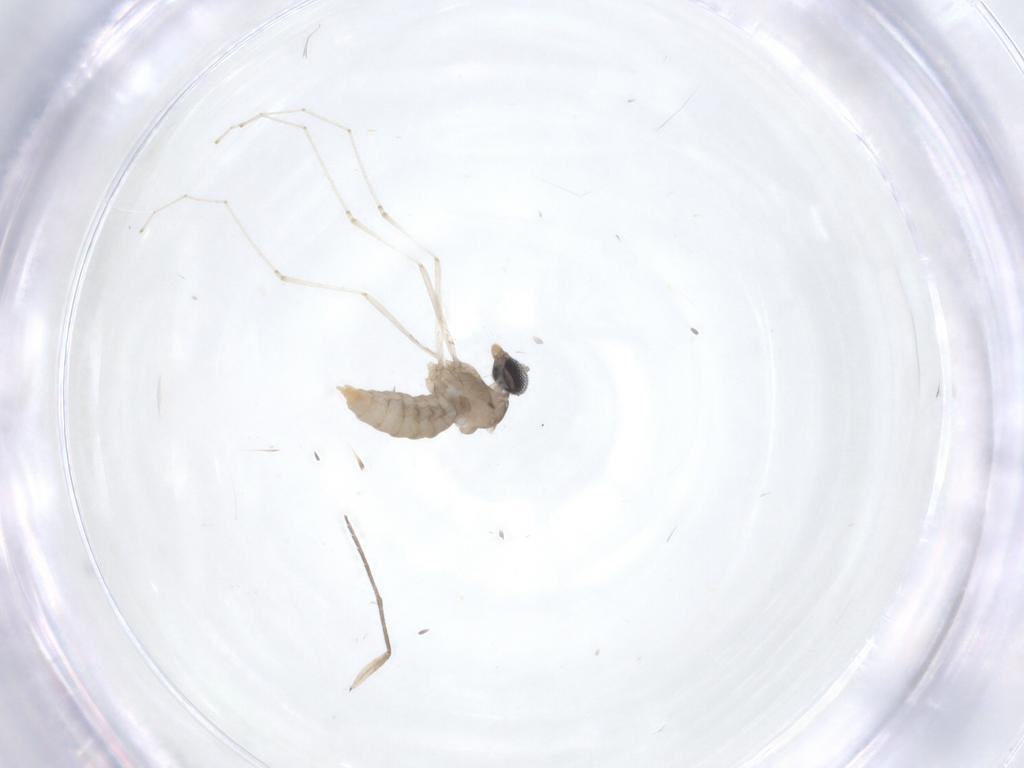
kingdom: Animalia
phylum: Arthropoda
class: Insecta
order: Diptera
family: Cecidomyiidae
